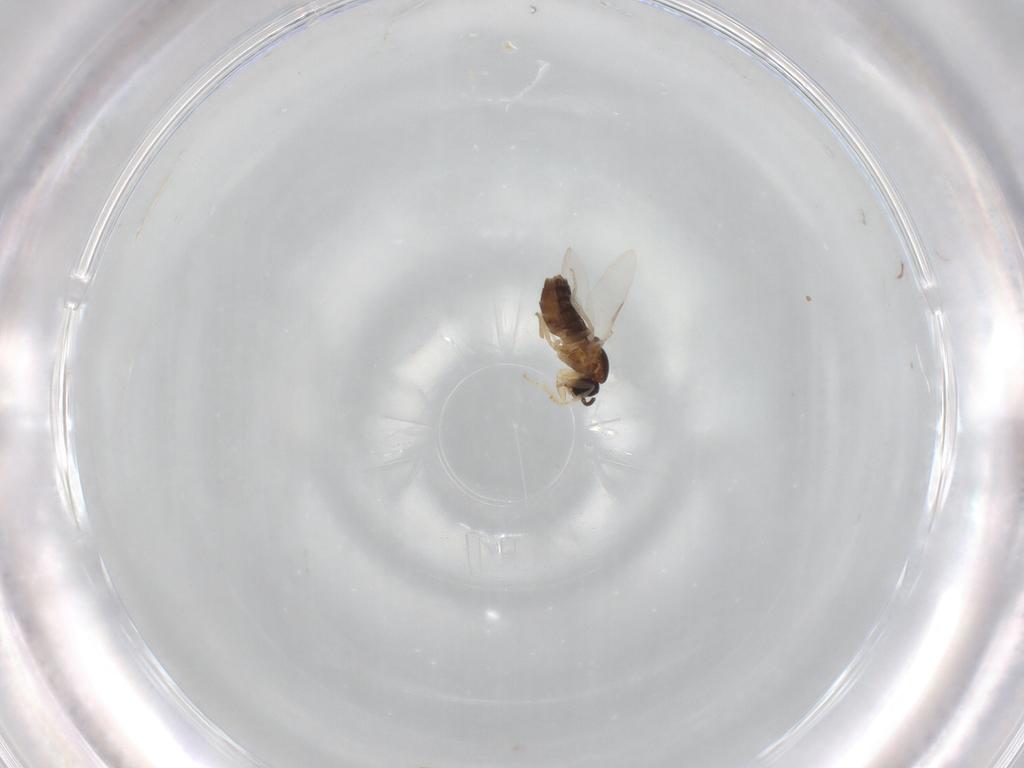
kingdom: Animalia
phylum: Arthropoda
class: Insecta
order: Diptera
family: Scatopsidae
